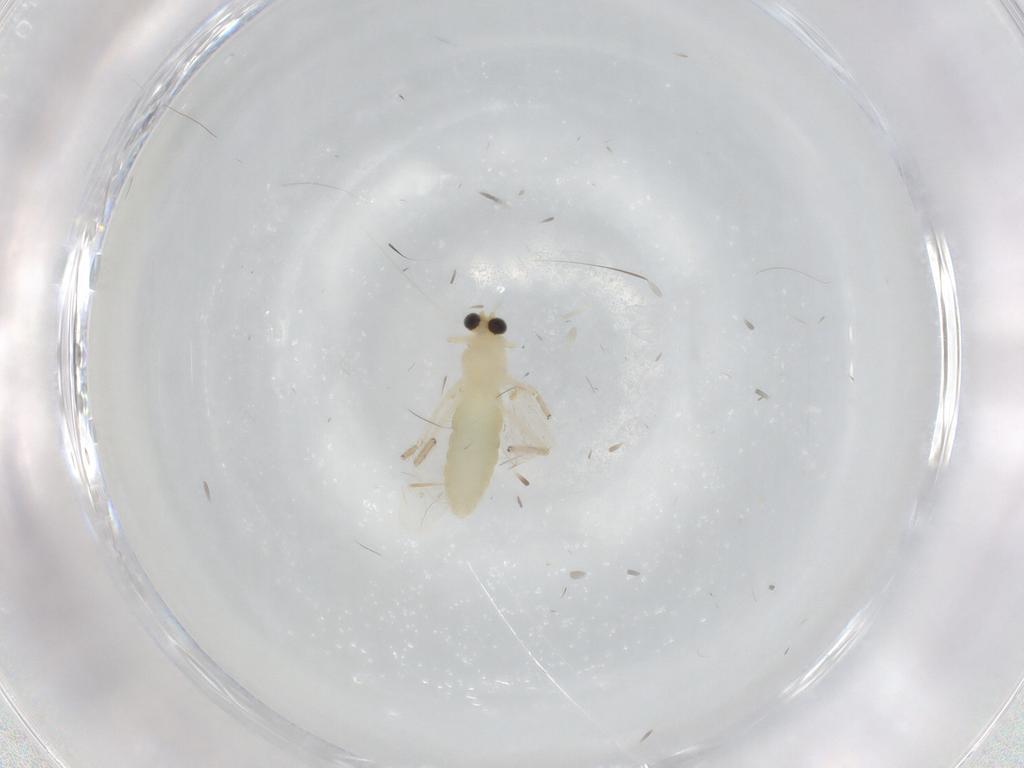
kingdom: Animalia
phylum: Arthropoda
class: Insecta
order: Diptera
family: Chironomidae
